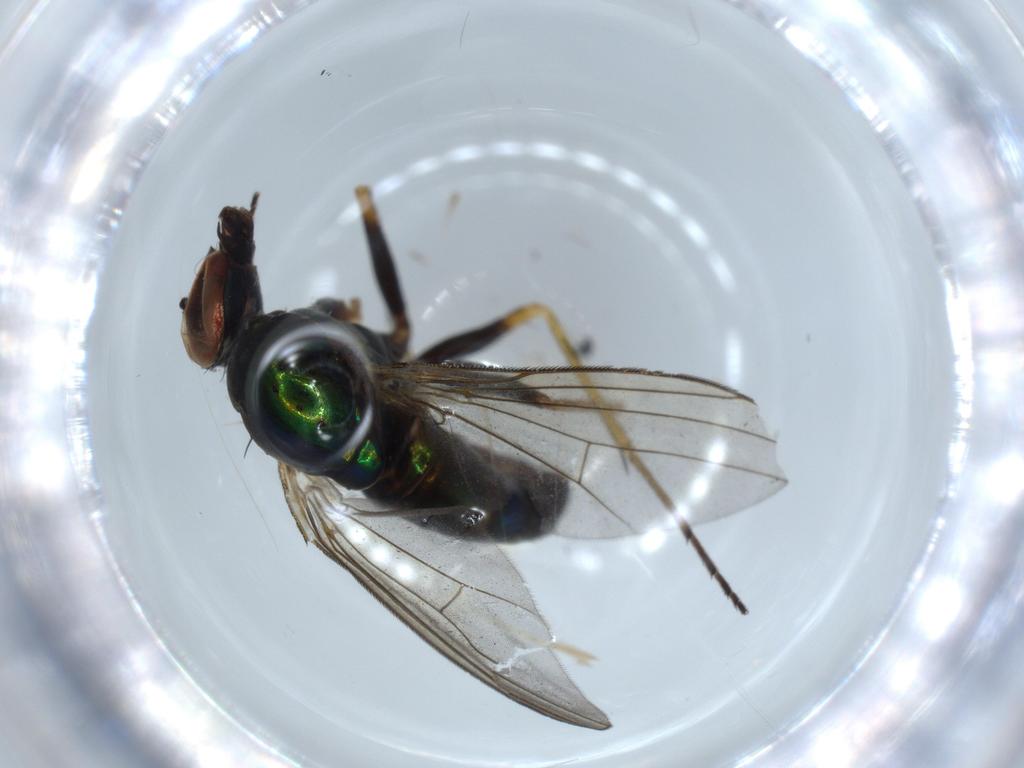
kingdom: Animalia
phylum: Arthropoda
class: Insecta
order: Diptera
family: Dolichopodidae
